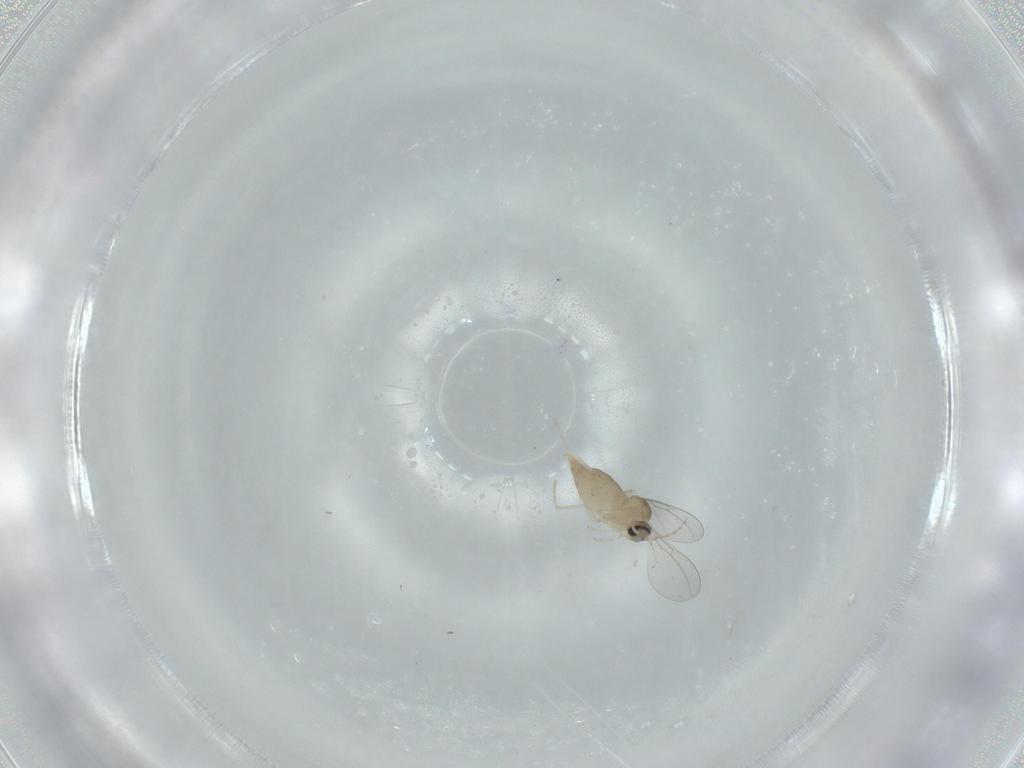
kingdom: Animalia
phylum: Arthropoda
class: Insecta
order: Diptera
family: Cecidomyiidae
